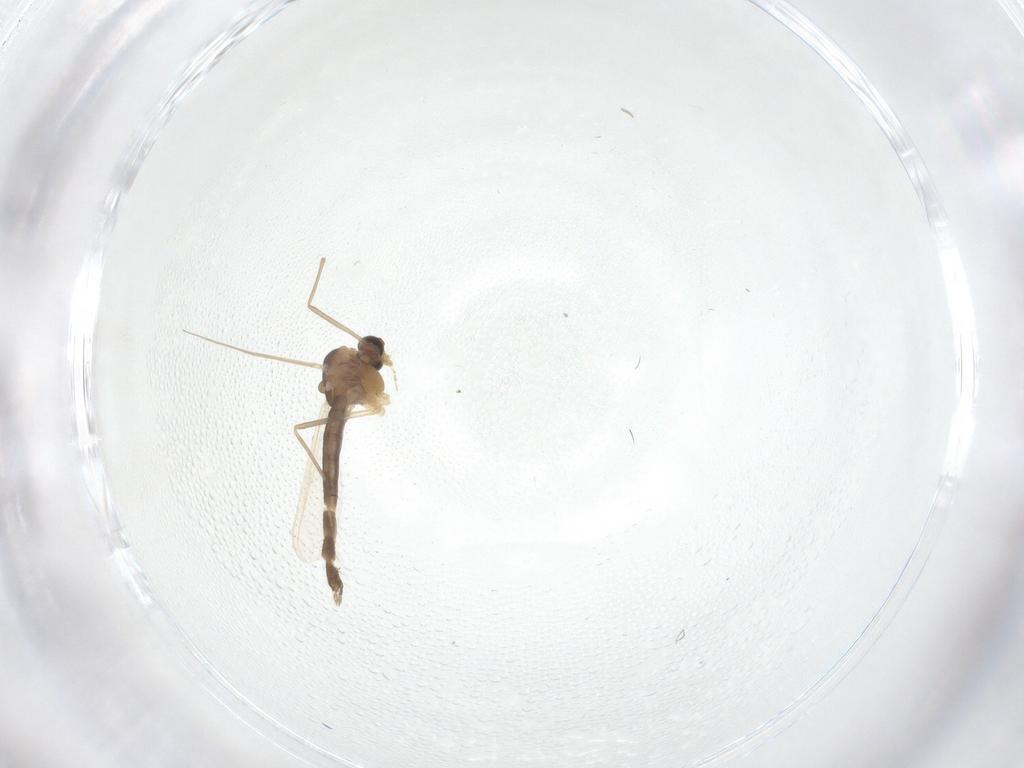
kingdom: Animalia
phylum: Arthropoda
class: Insecta
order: Diptera
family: Chironomidae
